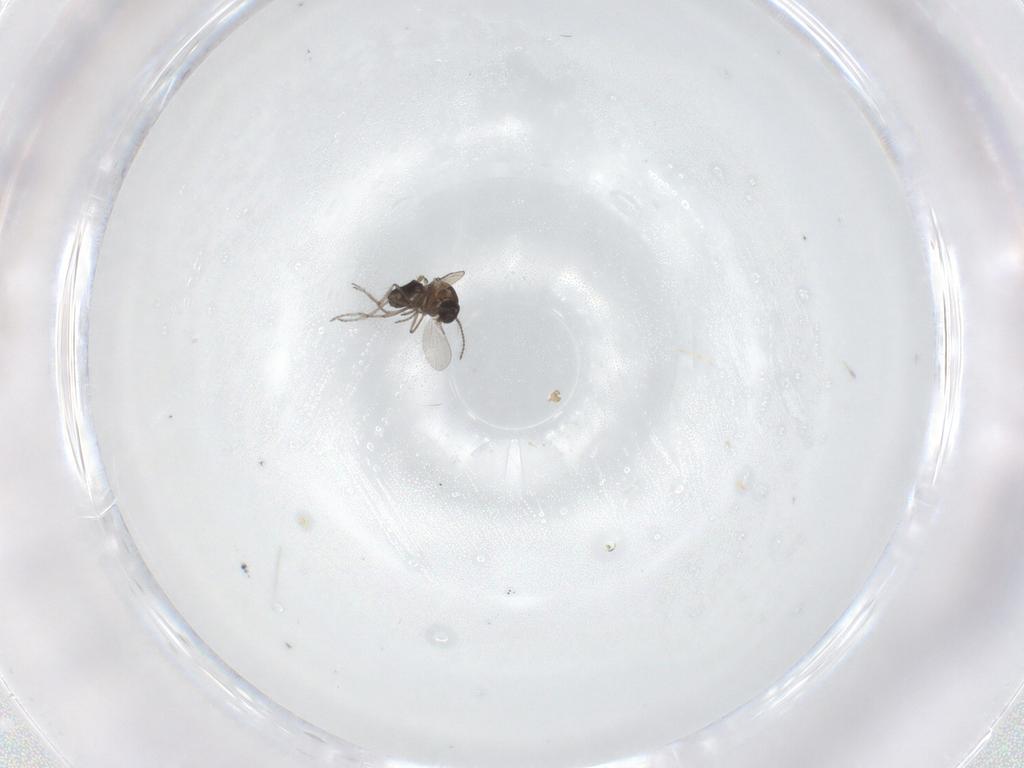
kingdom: Animalia
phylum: Arthropoda
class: Insecta
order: Diptera
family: Ceratopogonidae
